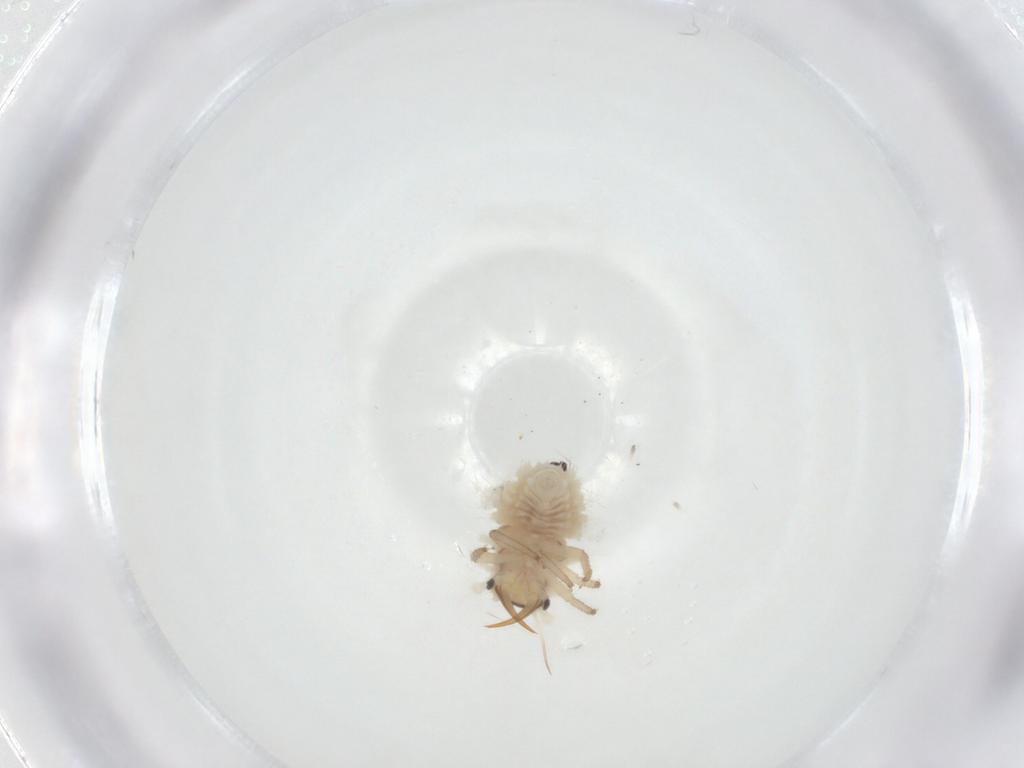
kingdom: Animalia
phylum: Arthropoda
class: Insecta
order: Neuroptera
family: Chrysopidae
